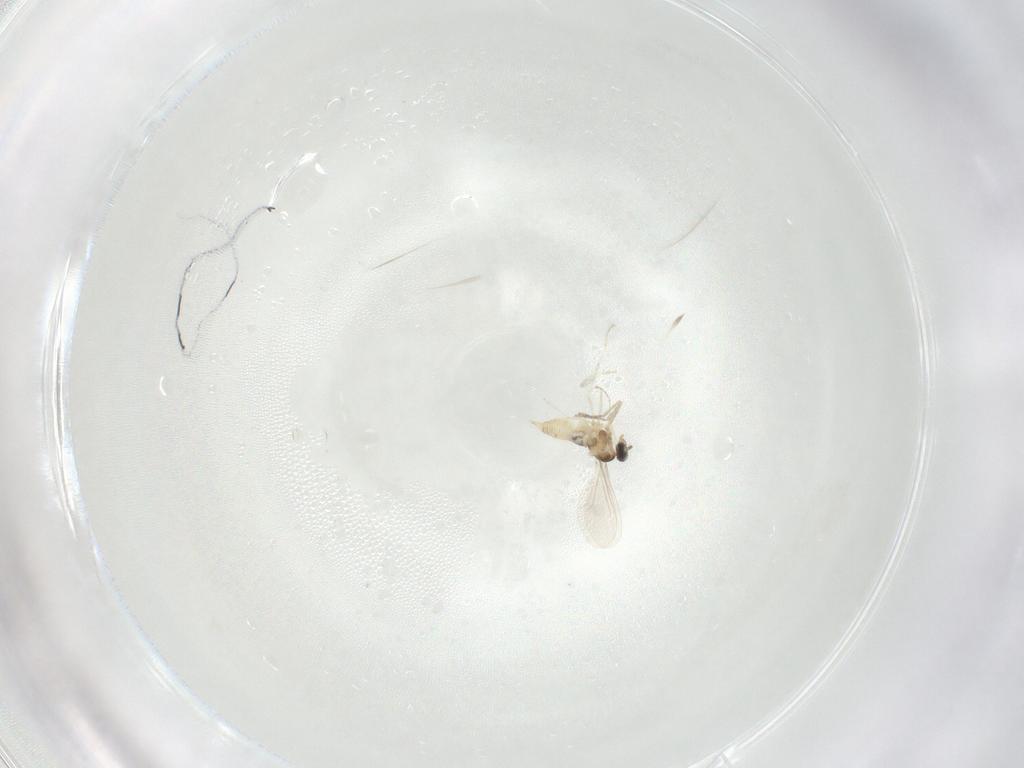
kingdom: Animalia
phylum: Arthropoda
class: Insecta
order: Diptera
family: Cecidomyiidae
